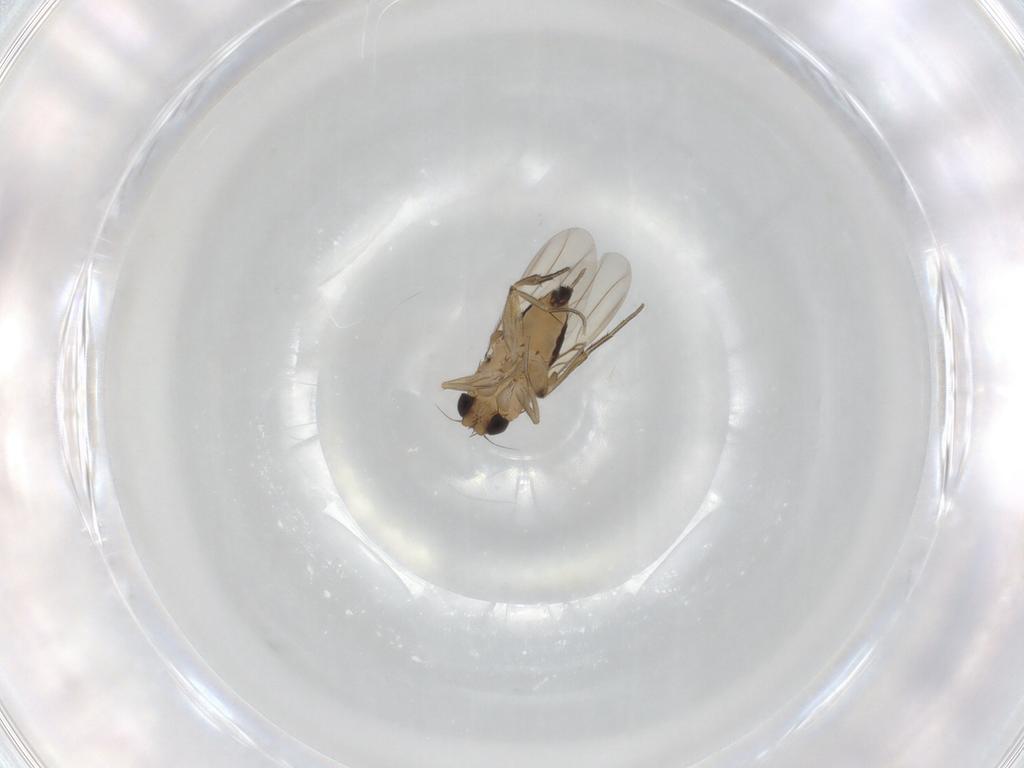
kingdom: Animalia
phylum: Arthropoda
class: Insecta
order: Diptera
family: Phoridae
